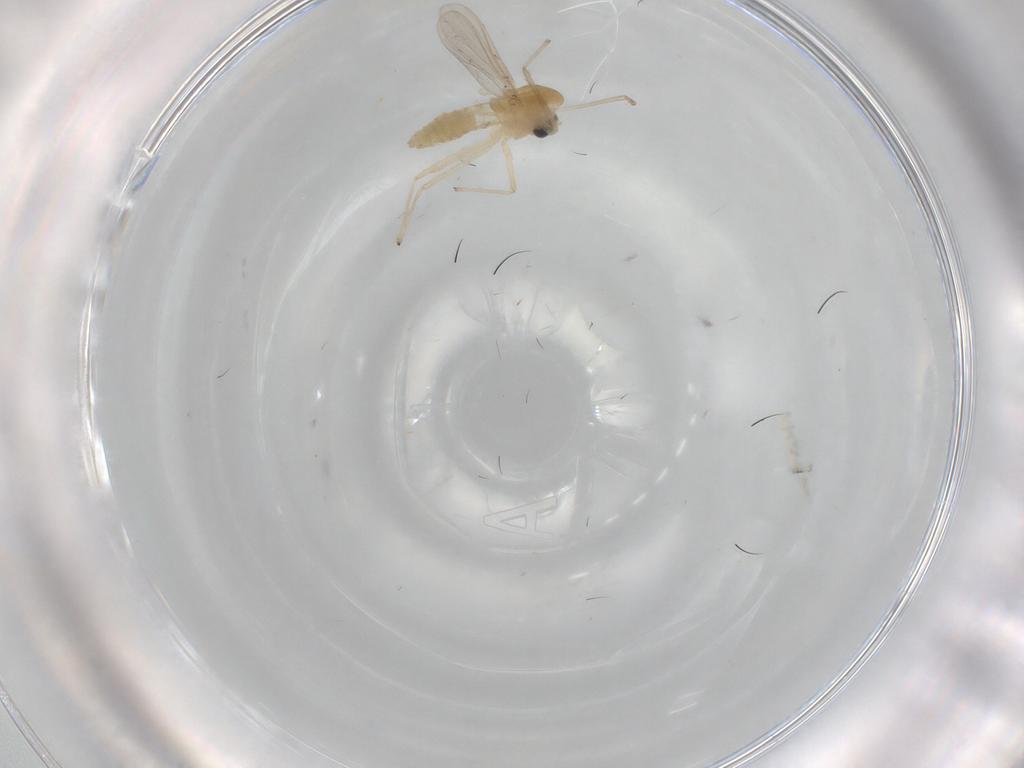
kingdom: Animalia
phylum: Arthropoda
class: Insecta
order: Diptera
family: Chironomidae
